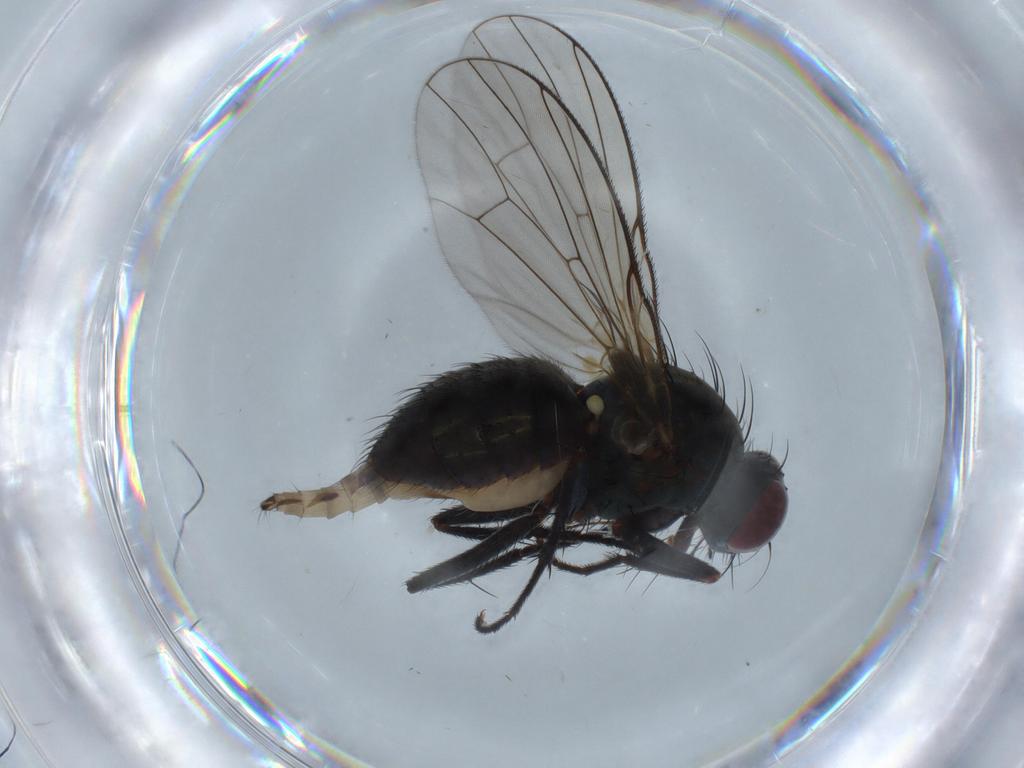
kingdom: Animalia
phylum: Arthropoda
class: Insecta
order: Diptera
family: Muscidae
